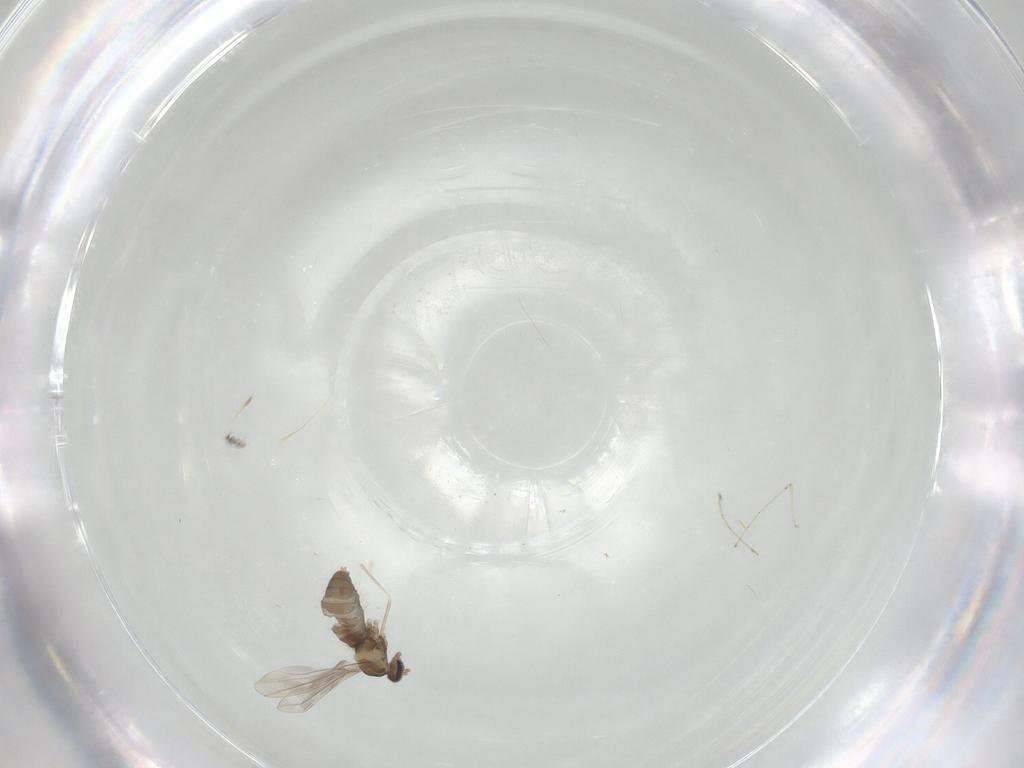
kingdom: Animalia
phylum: Arthropoda
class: Insecta
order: Diptera
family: Cecidomyiidae
